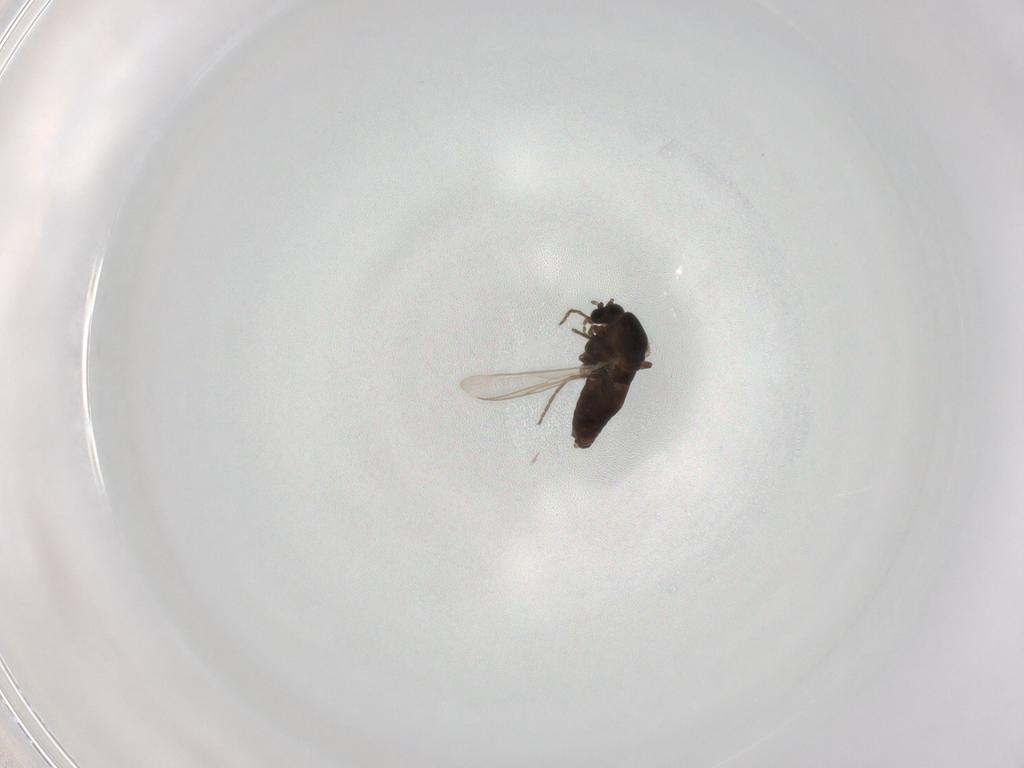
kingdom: Animalia
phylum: Arthropoda
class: Insecta
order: Diptera
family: Chironomidae
